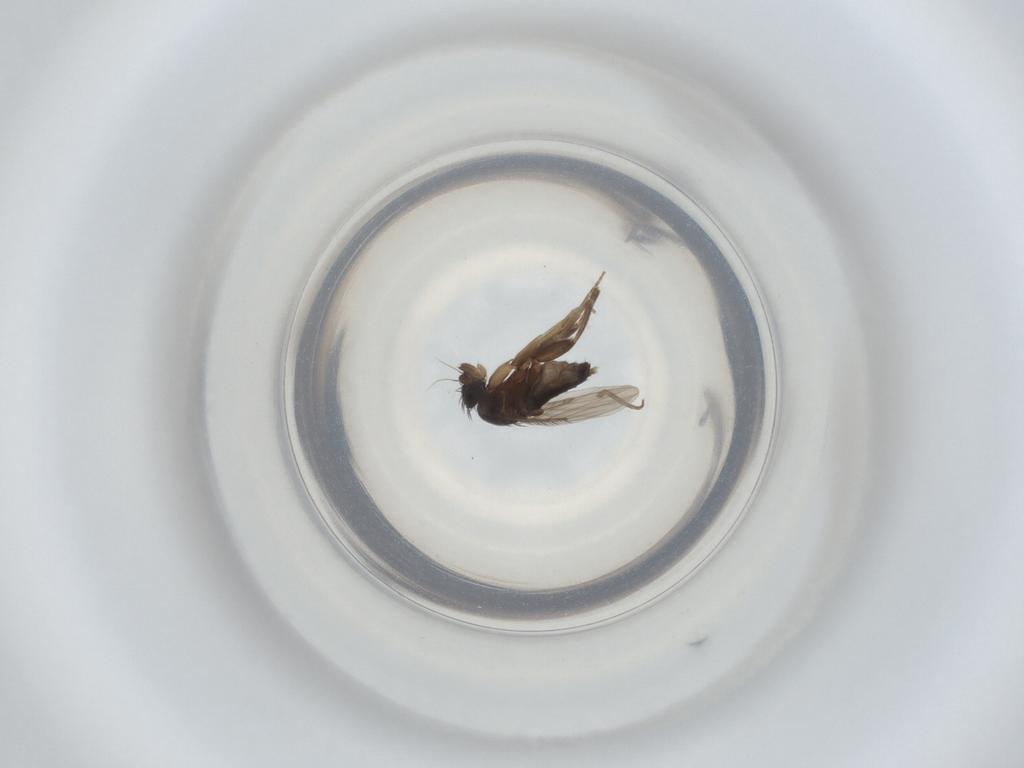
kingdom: Animalia
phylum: Arthropoda
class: Insecta
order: Diptera
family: Phoridae
